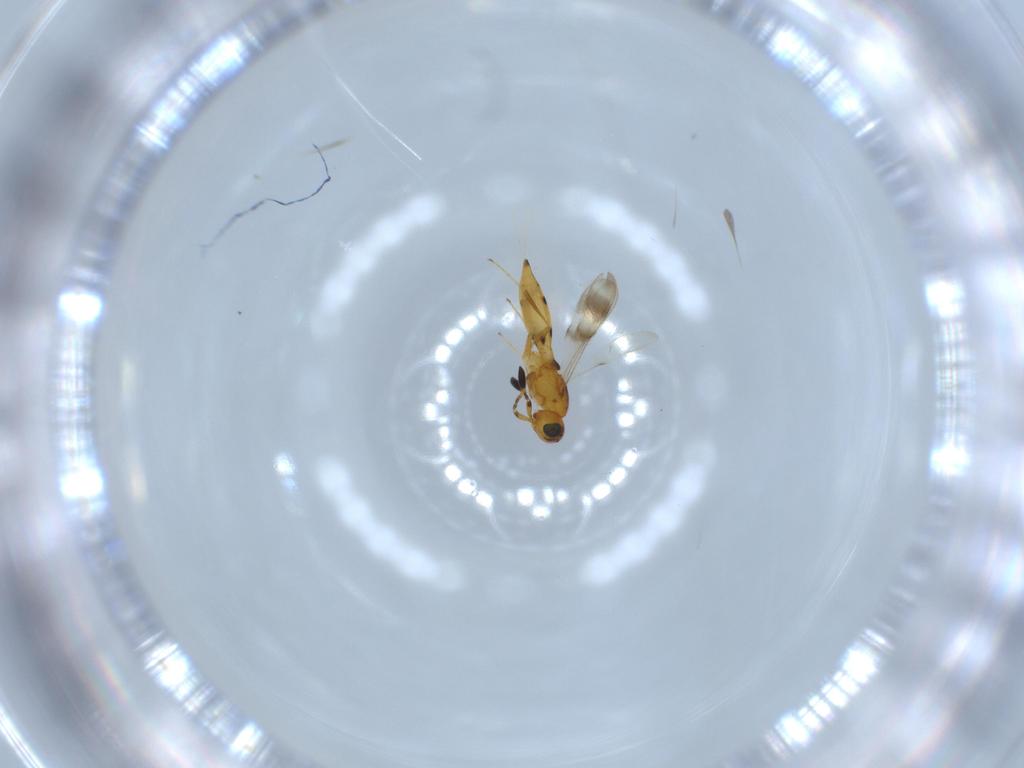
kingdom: Animalia
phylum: Arthropoda
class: Insecta
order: Hymenoptera
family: Scelionidae
